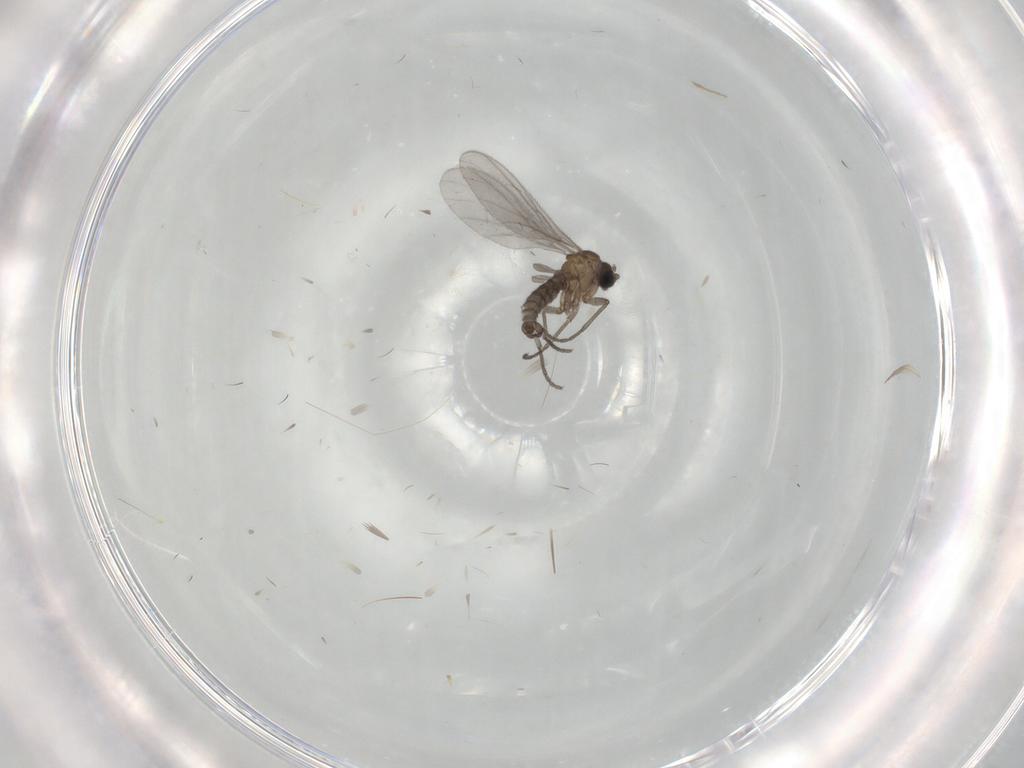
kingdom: Animalia
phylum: Arthropoda
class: Insecta
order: Diptera
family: Sciaridae
